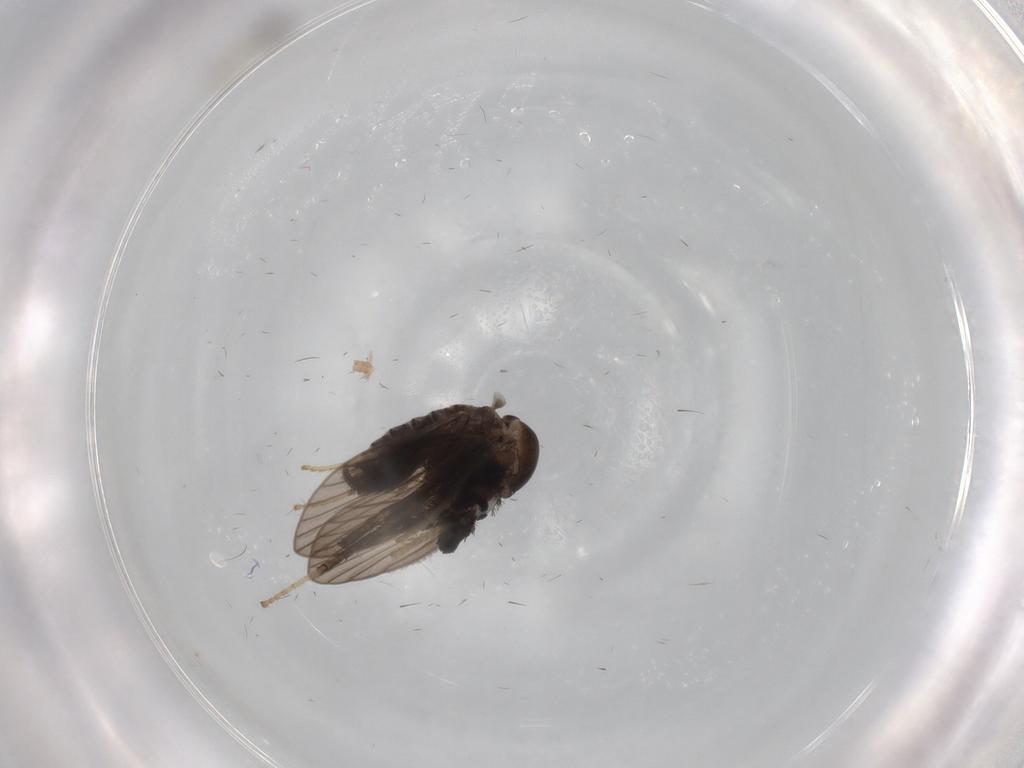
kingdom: Animalia
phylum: Arthropoda
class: Insecta
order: Diptera
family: Psychodidae
